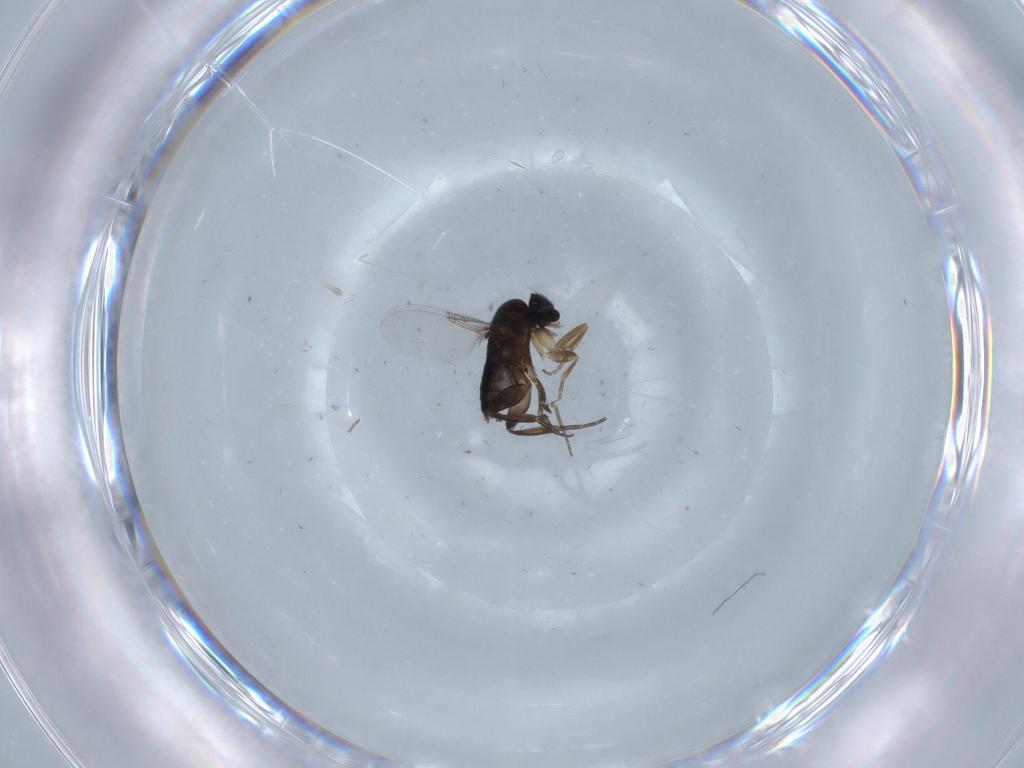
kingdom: Animalia
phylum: Arthropoda
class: Insecta
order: Diptera
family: Phoridae
